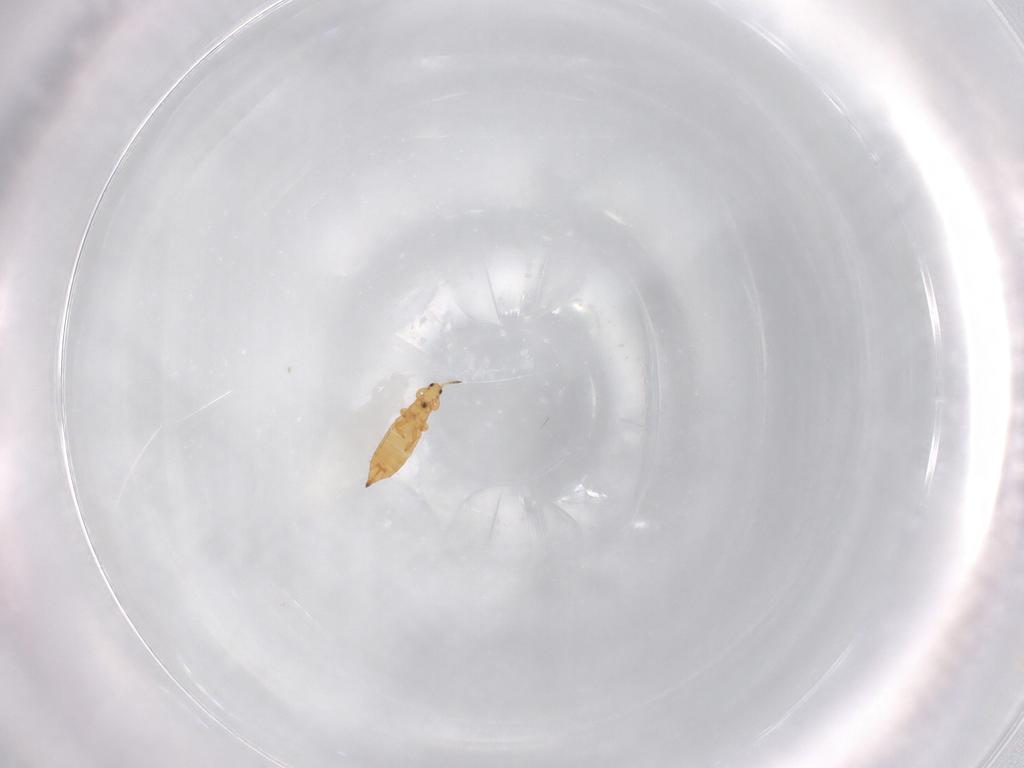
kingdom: Animalia
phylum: Arthropoda
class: Insecta
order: Thysanoptera
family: Thripidae
